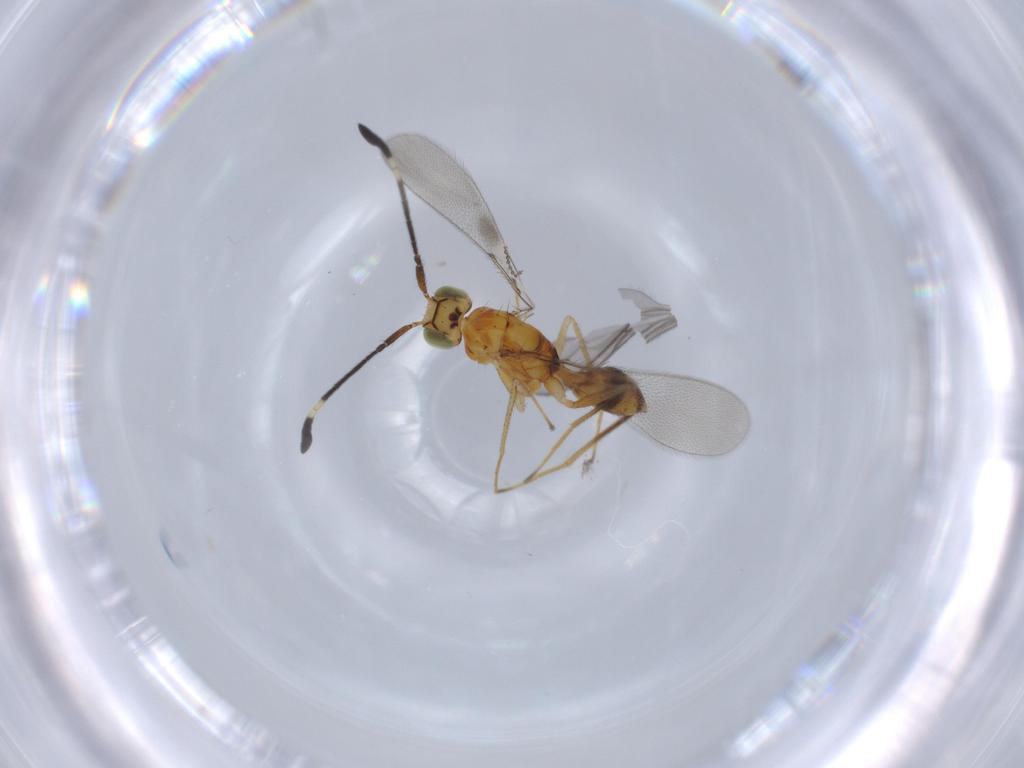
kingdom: Animalia
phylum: Arthropoda
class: Insecta
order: Hymenoptera
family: Mymaridae
